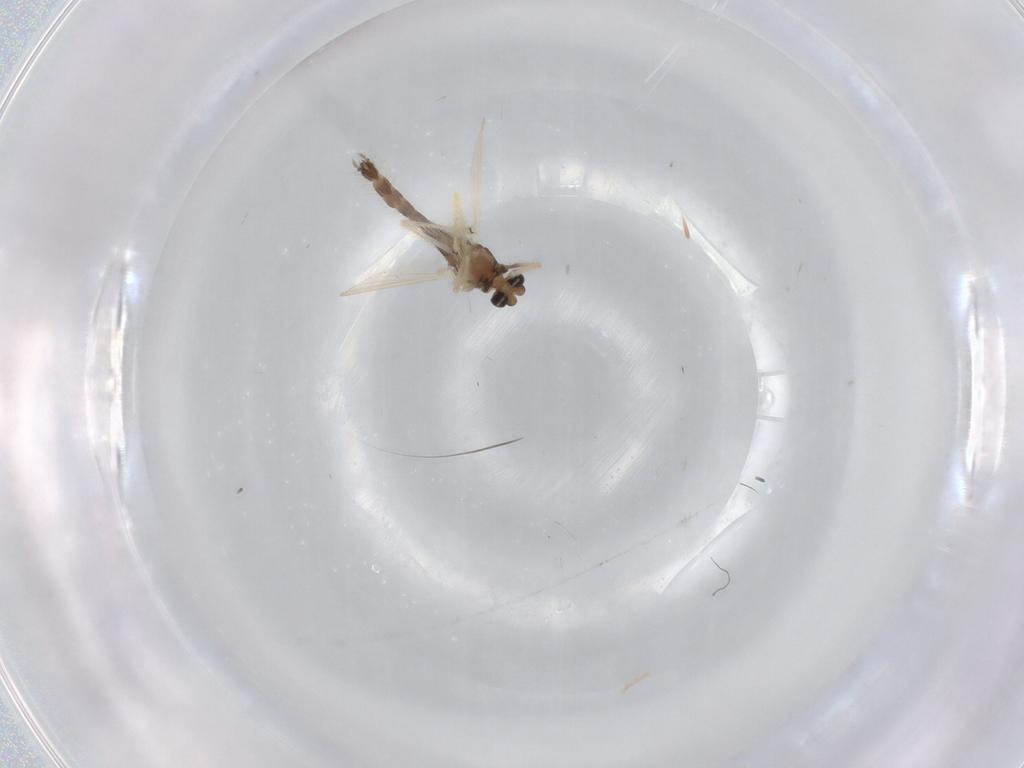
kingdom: Animalia
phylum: Arthropoda
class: Insecta
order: Diptera
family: Chironomidae
